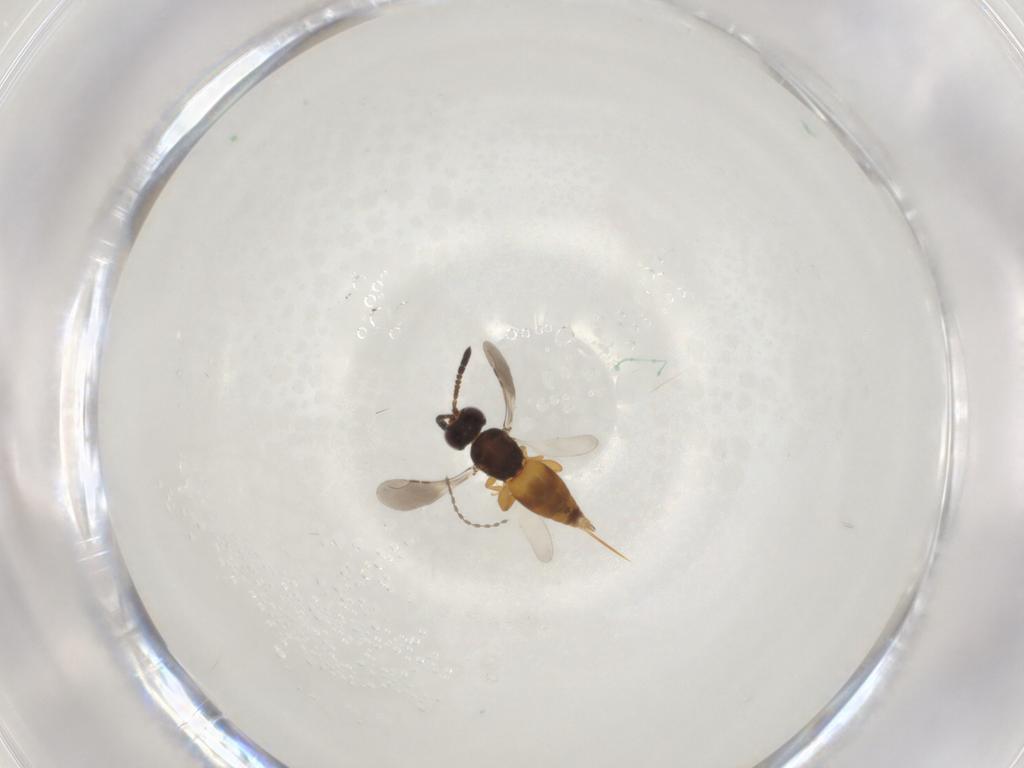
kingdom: Animalia
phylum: Arthropoda
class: Insecta
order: Hymenoptera
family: Ceraphronidae
